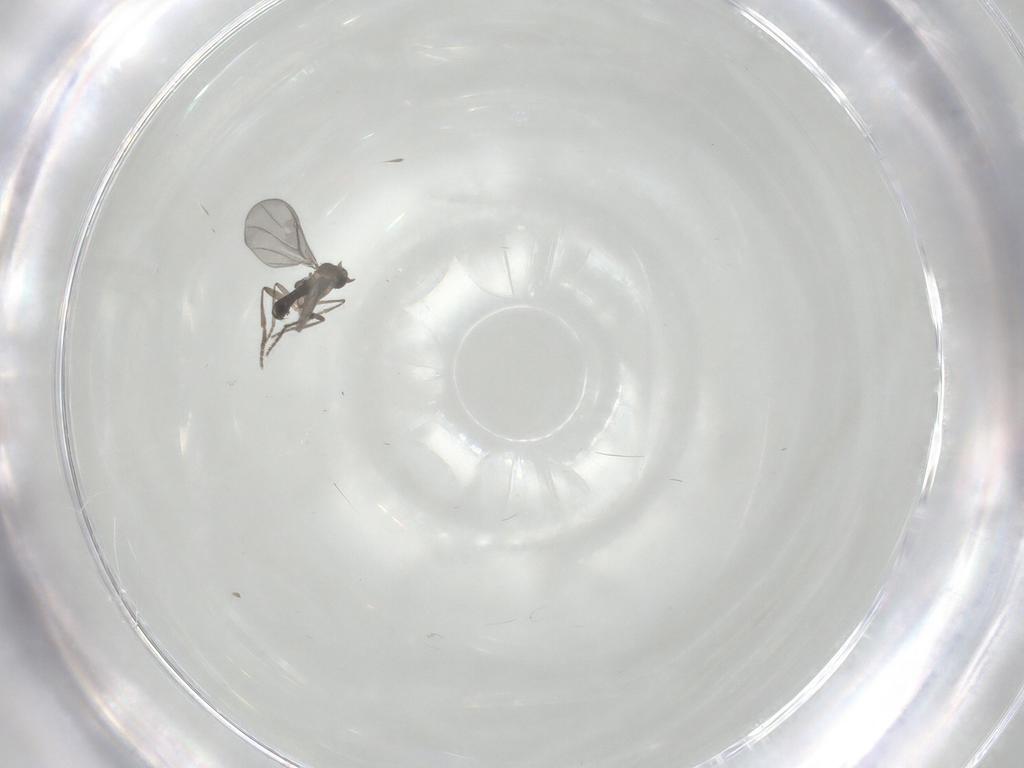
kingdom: Animalia
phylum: Arthropoda
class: Insecta
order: Diptera
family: Phoridae
